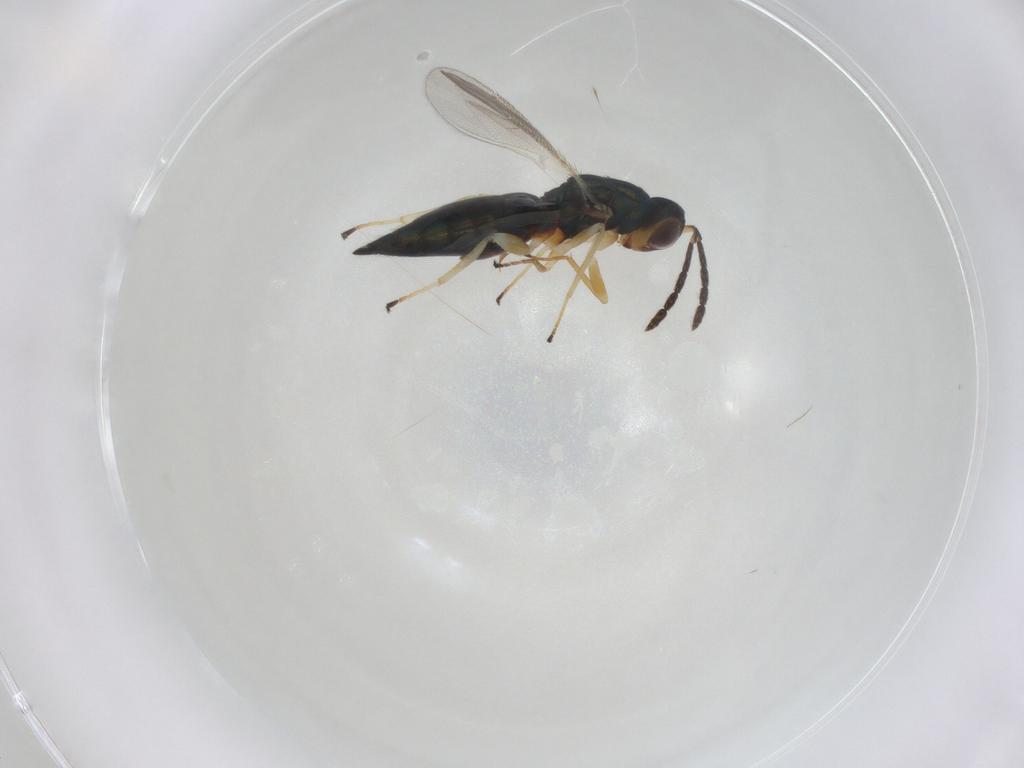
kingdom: Animalia
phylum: Arthropoda
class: Insecta
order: Hymenoptera
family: Eulophidae
